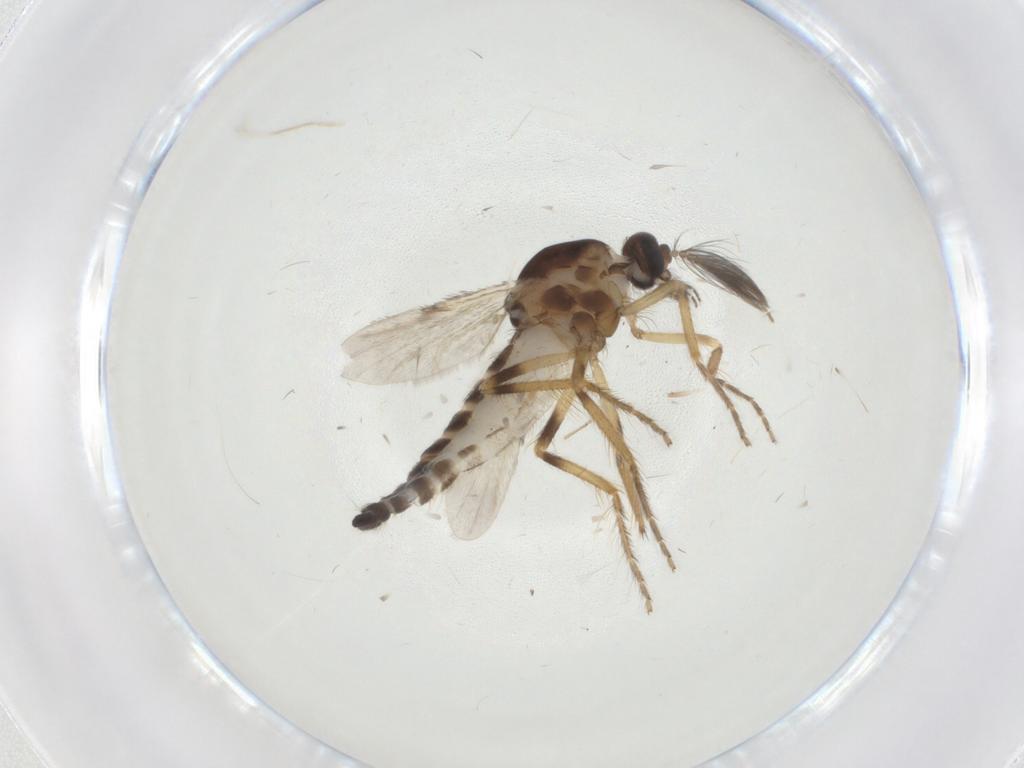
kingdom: Animalia
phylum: Arthropoda
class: Insecta
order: Diptera
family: Ceratopogonidae
